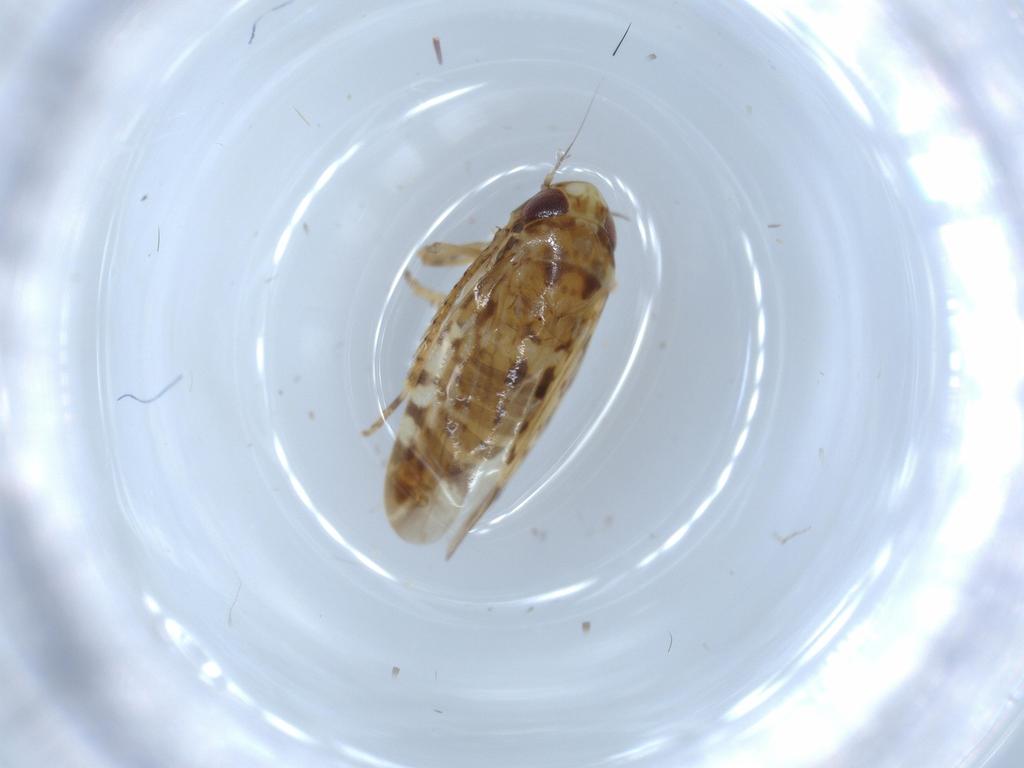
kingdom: Animalia
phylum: Arthropoda
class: Insecta
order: Hemiptera
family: Cicadellidae
